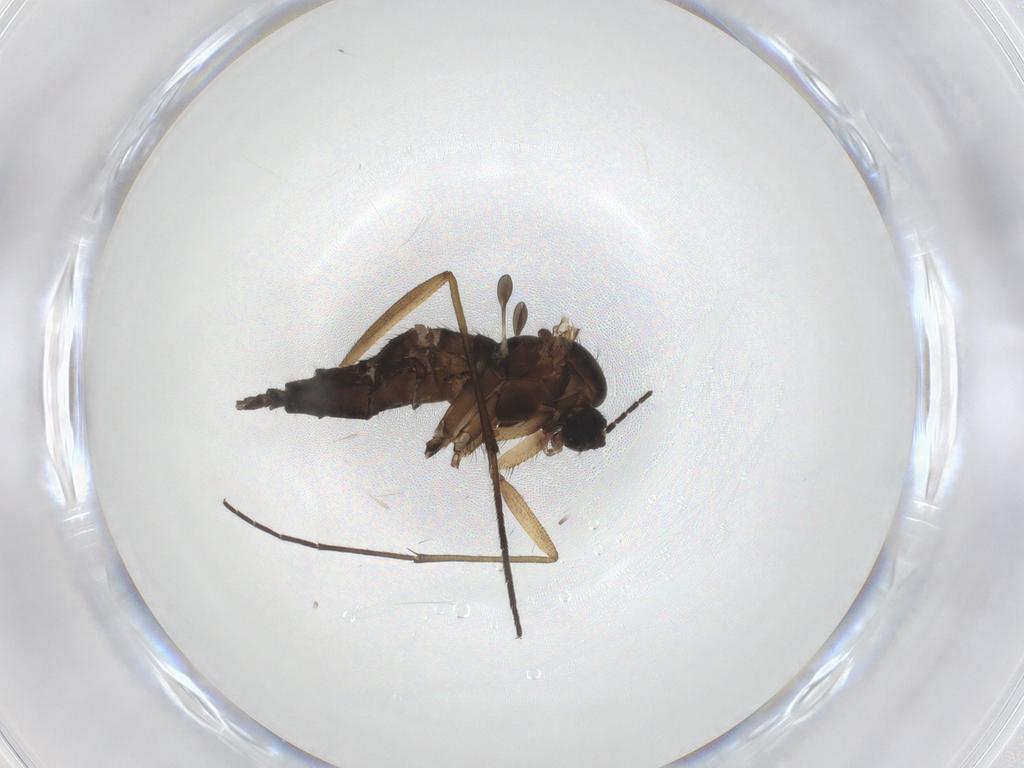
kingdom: Animalia
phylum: Arthropoda
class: Insecta
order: Diptera
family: Sciaridae
